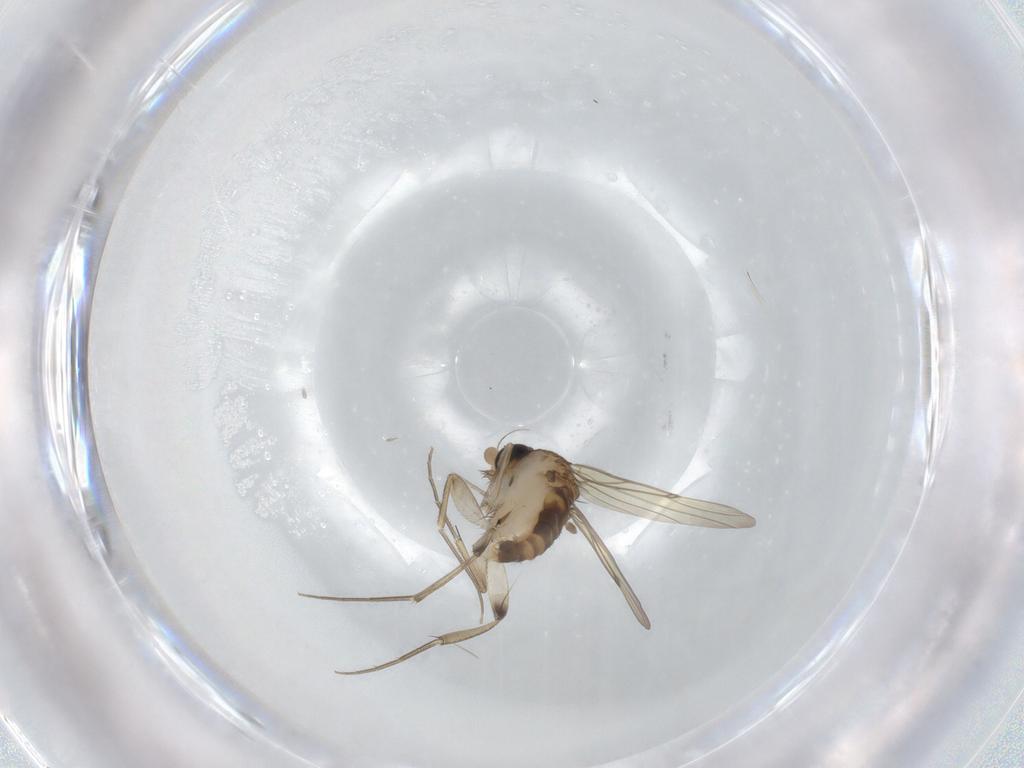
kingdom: Animalia
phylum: Arthropoda
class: Insecta
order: Diptera
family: Phoridae
